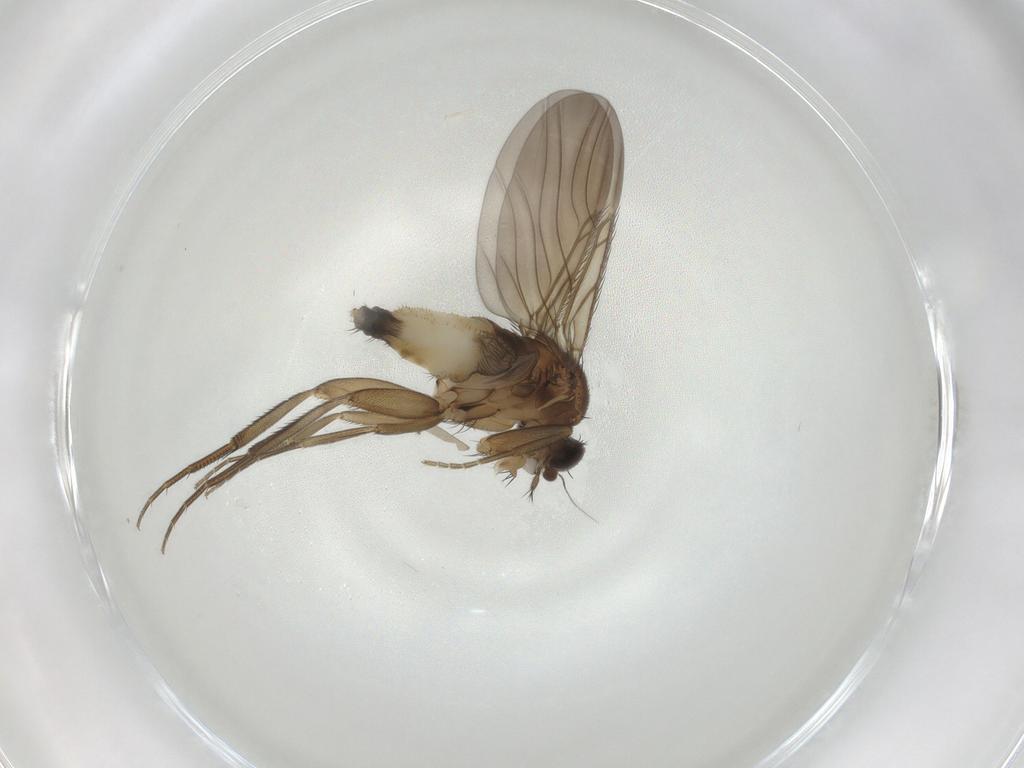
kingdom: Animalia
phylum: Arthropoda
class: Insecta
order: Diptera
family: Phoridae
